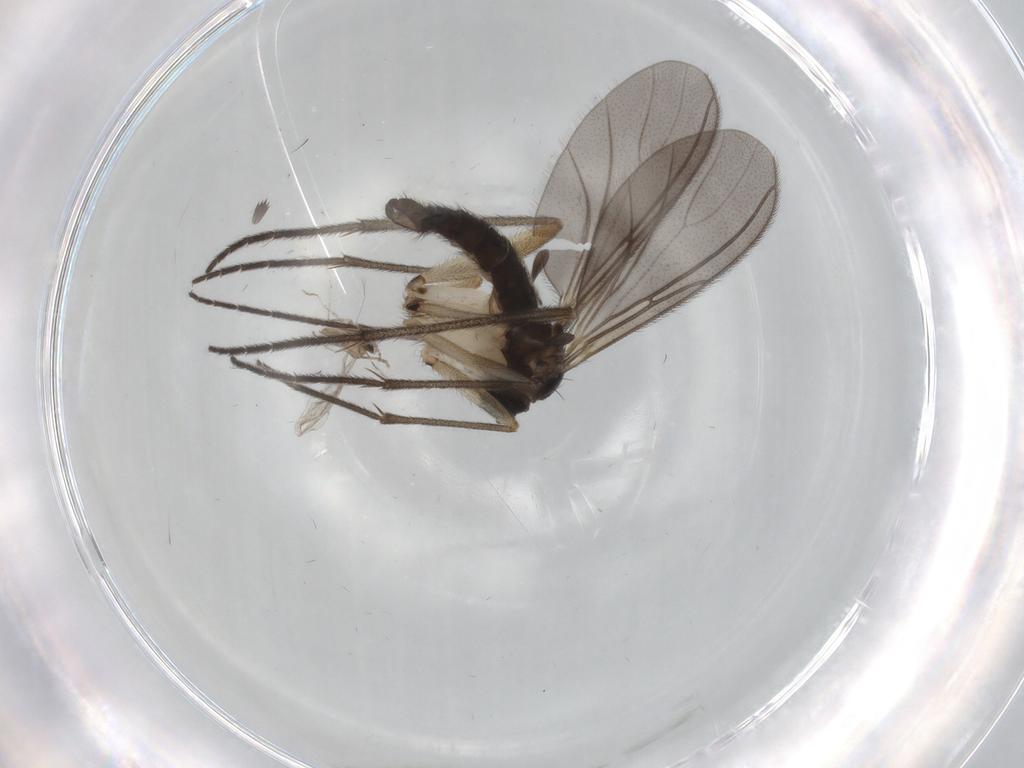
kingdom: Animalia
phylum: Arthropoda
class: Insecta
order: Diptera
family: Sciaridae
